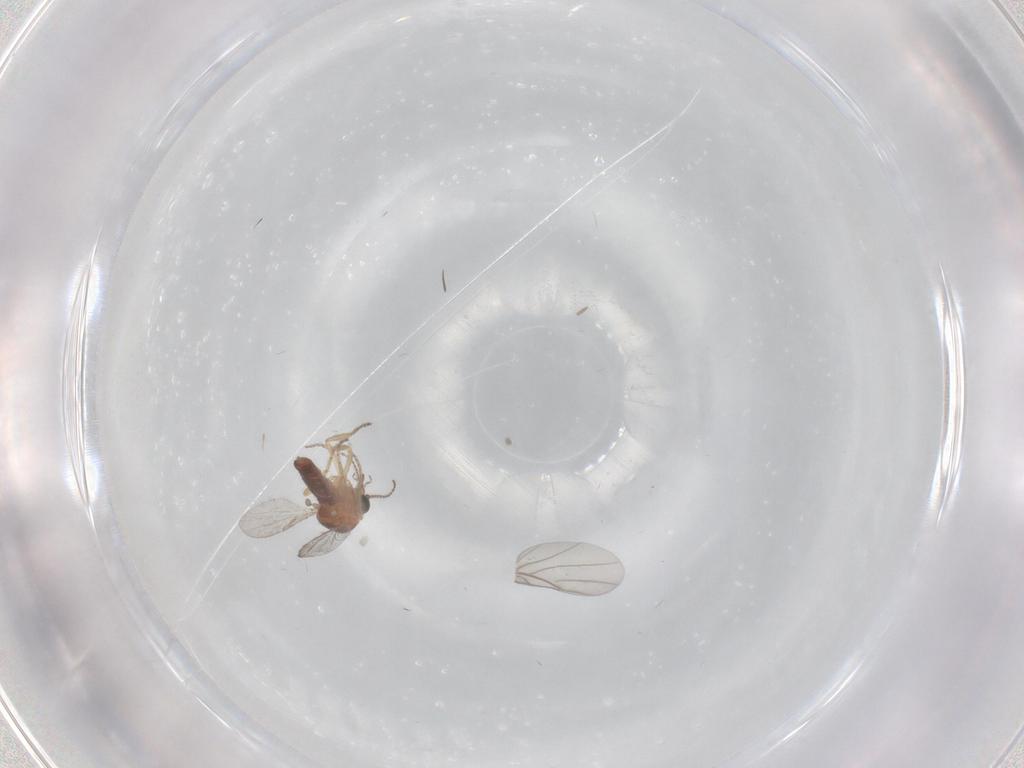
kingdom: Animalia
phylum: Arthropoda
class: Insecta
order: Diptera
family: Ceratopogonidae
